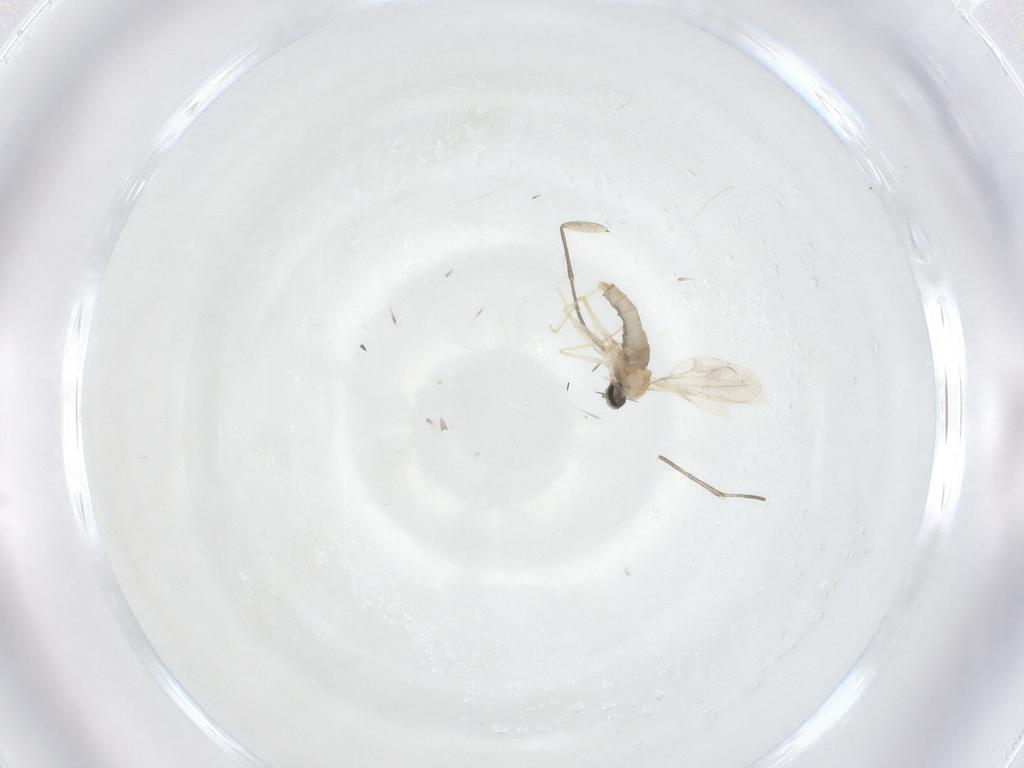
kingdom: Animalia
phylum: Arthropoda
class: Insecta
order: Diptera
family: Cecidomyiidae
